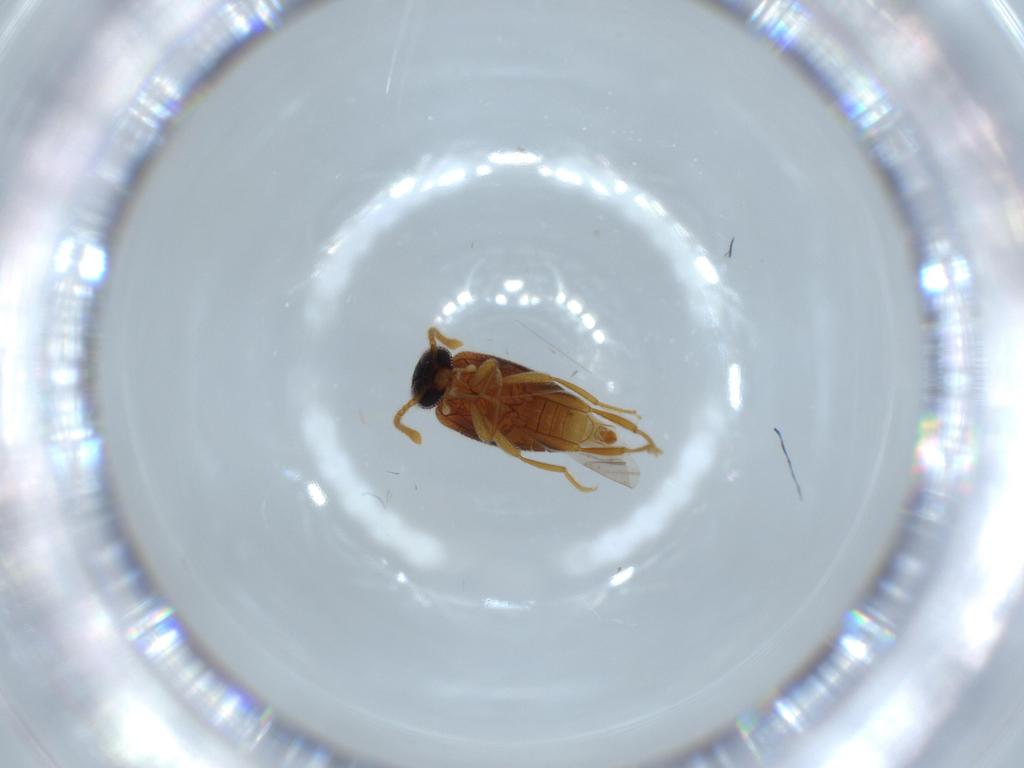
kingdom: Animalia
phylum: Arthropoda
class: Insecta
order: Coleoptera
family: Aderidae
